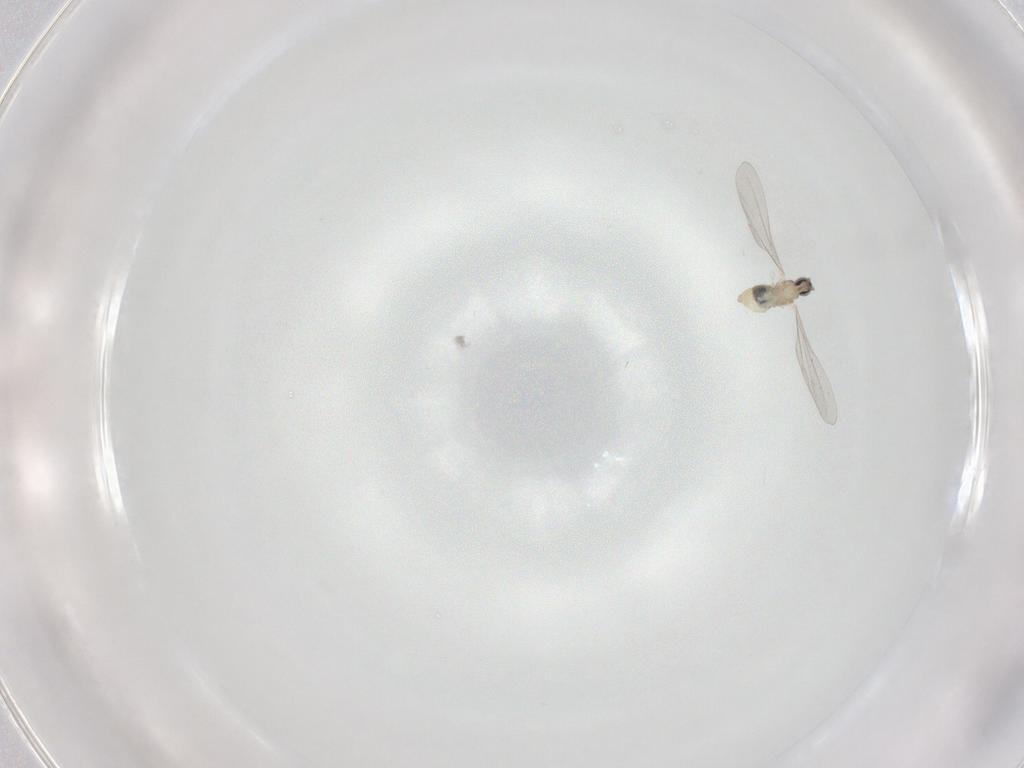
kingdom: Animalia
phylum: Arthropoda
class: Insecta
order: Diptera
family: Cecidomyiidae
